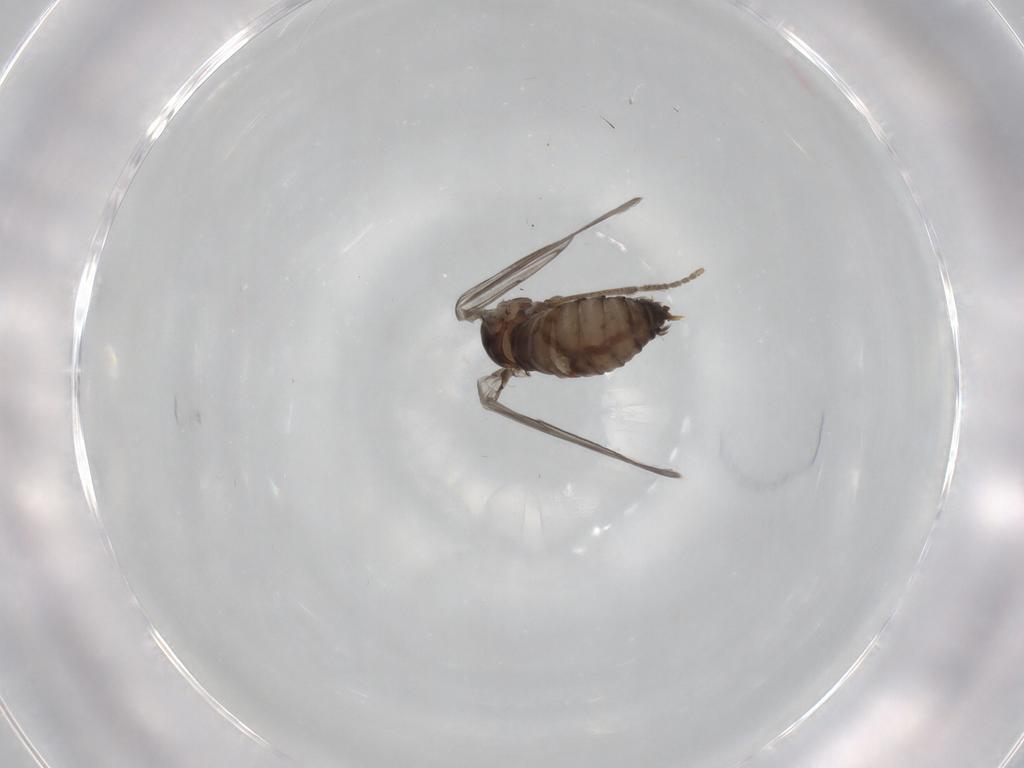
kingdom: Animalia
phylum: Arthropoda
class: Insecta
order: Diptera
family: Psychodidae
